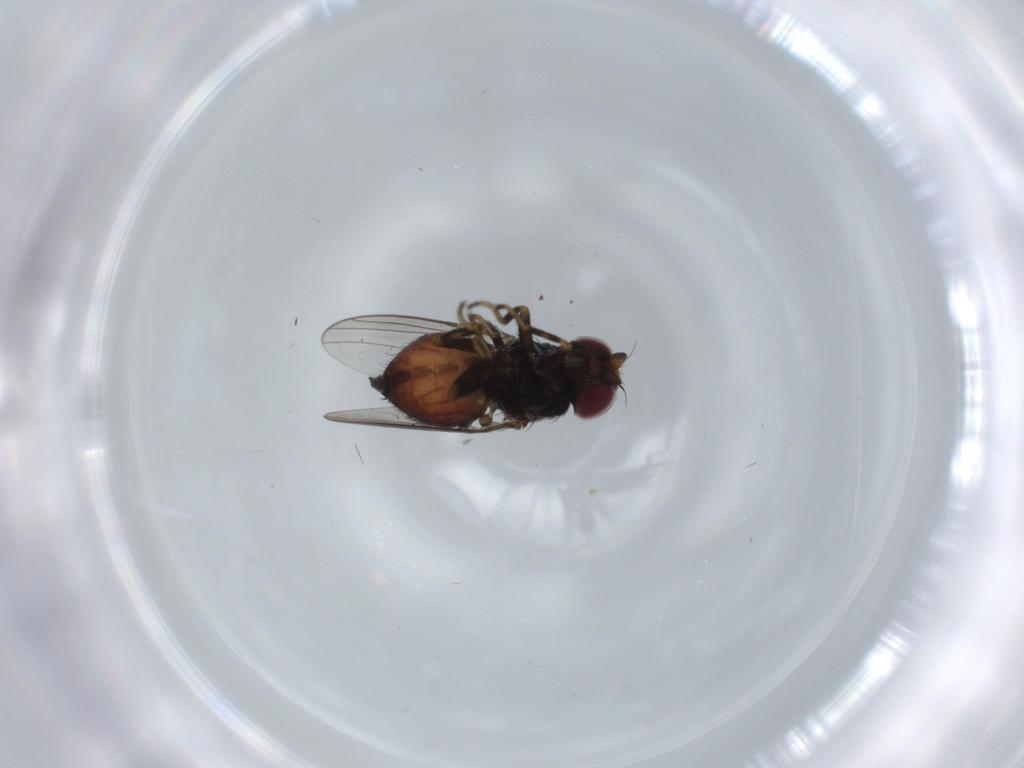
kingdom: Animalia
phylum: Arthropoda
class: Insecta
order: Diptera
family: Chloropidae
